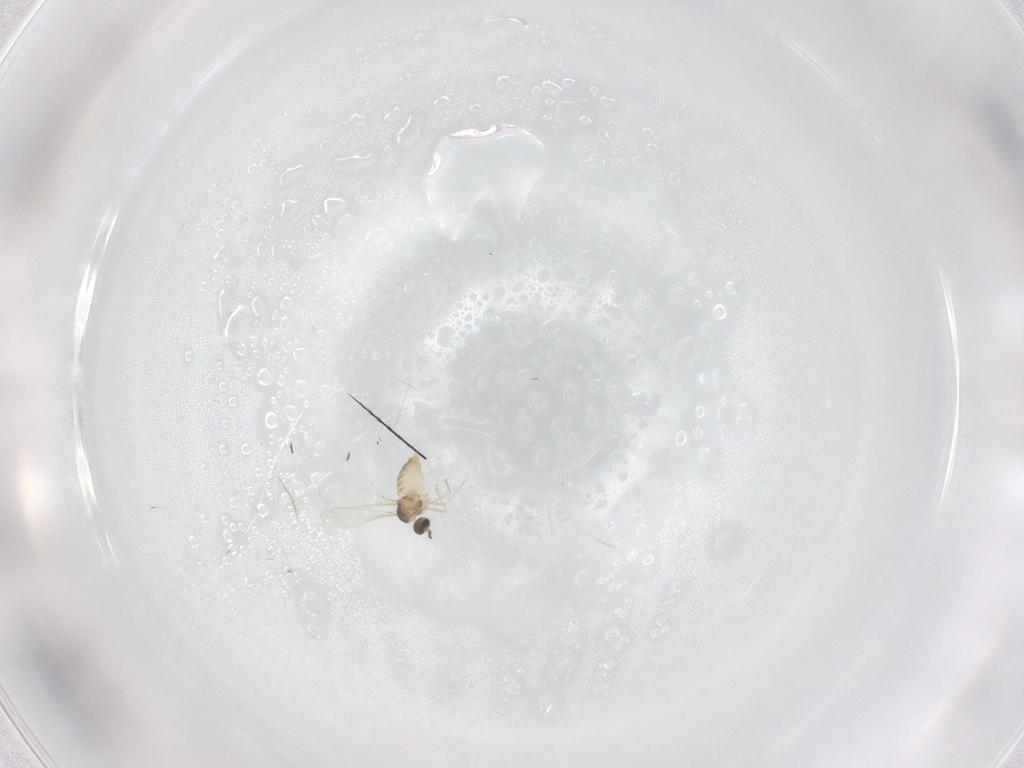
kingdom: Animalia
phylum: Arthropoda
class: Insecta
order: Diptera
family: Cecidomyiidae
